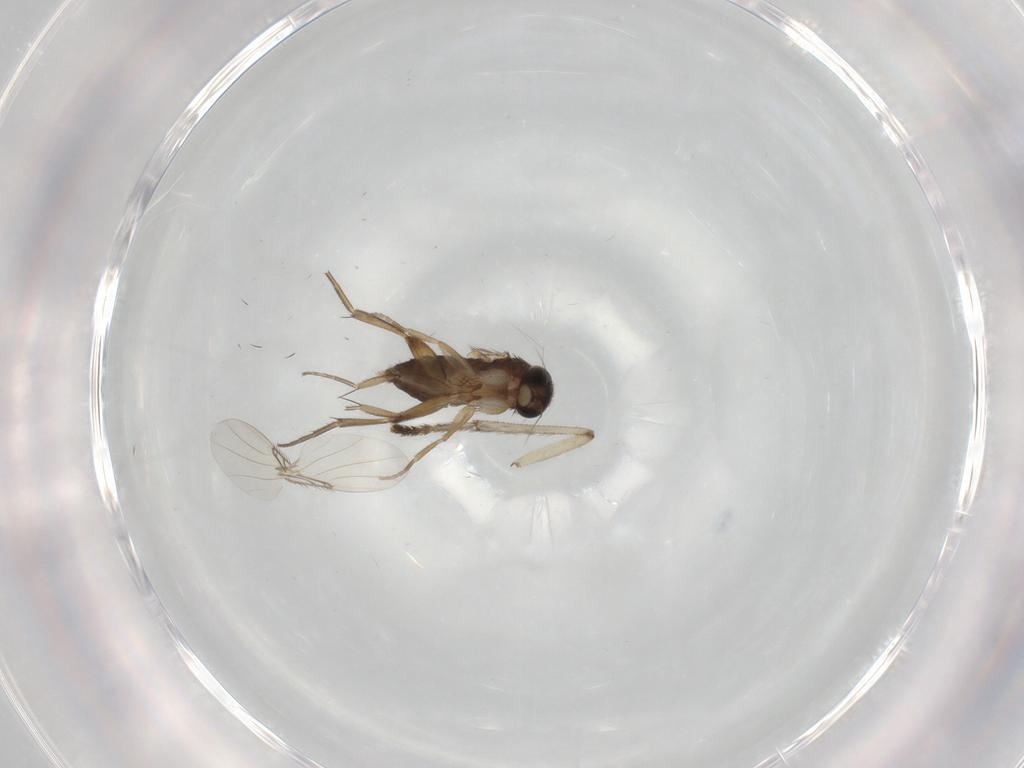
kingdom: Animalia
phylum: Arthropoda
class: Insecta
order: Diptera
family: Phoridae
